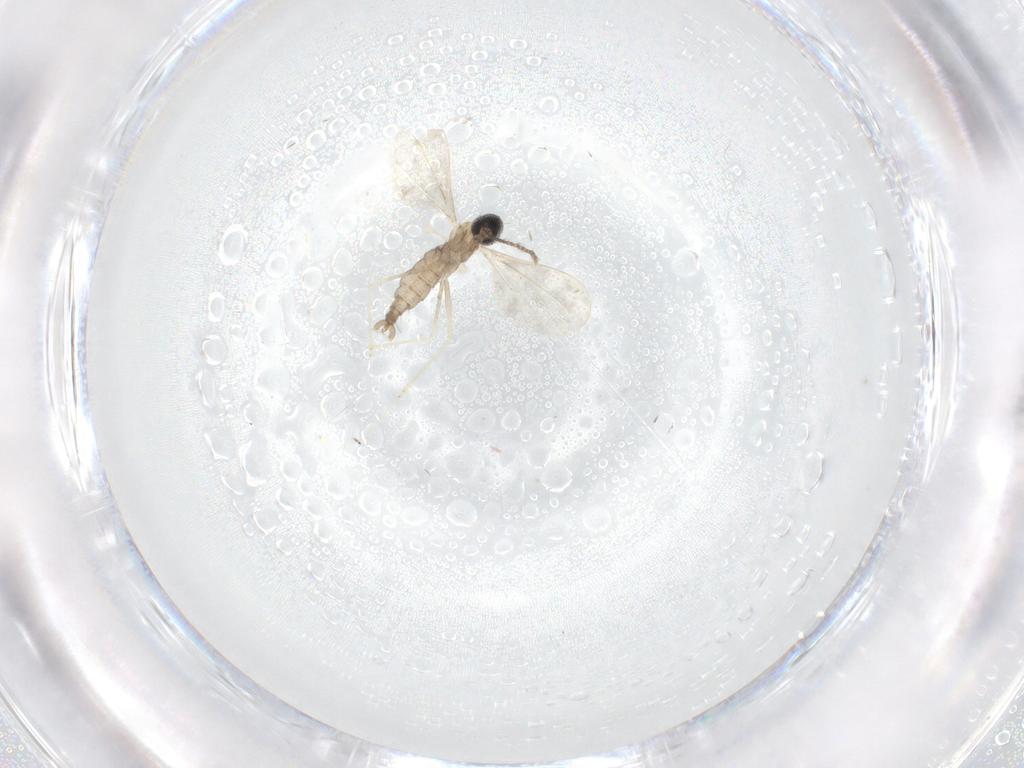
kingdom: Animalia
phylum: Arthropoda
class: Insecta
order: Diptera
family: Cecidomyiidae
